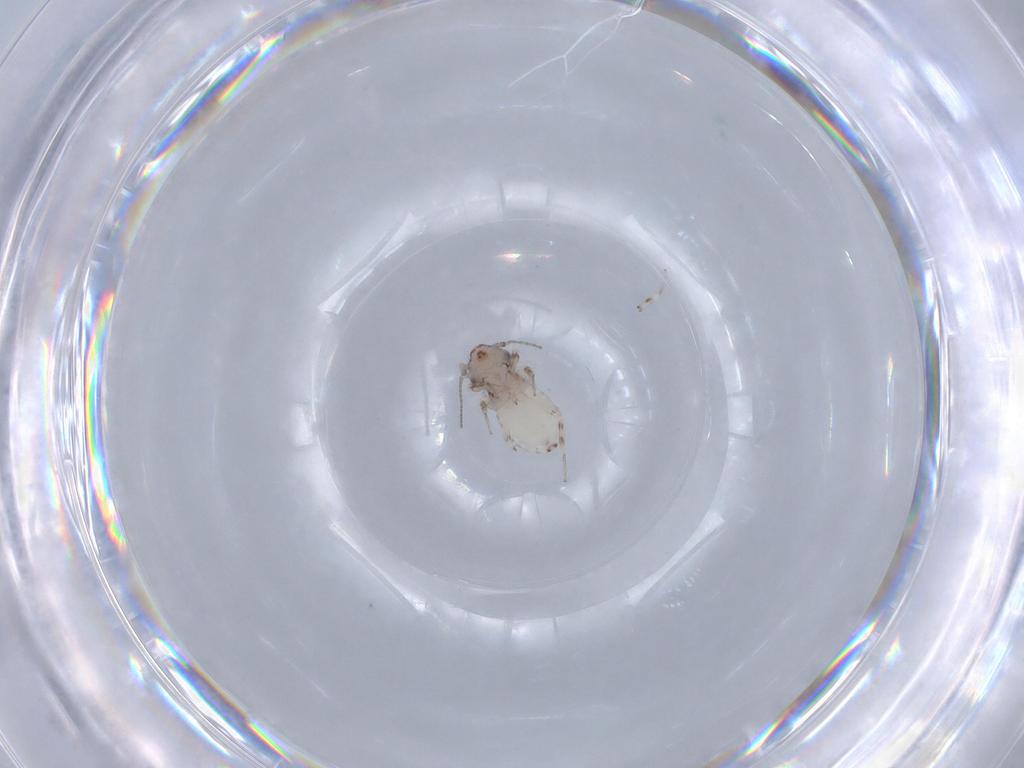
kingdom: Animalia
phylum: Arthropoda
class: Insecta
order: Psocodea
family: Lepidopsocidae
